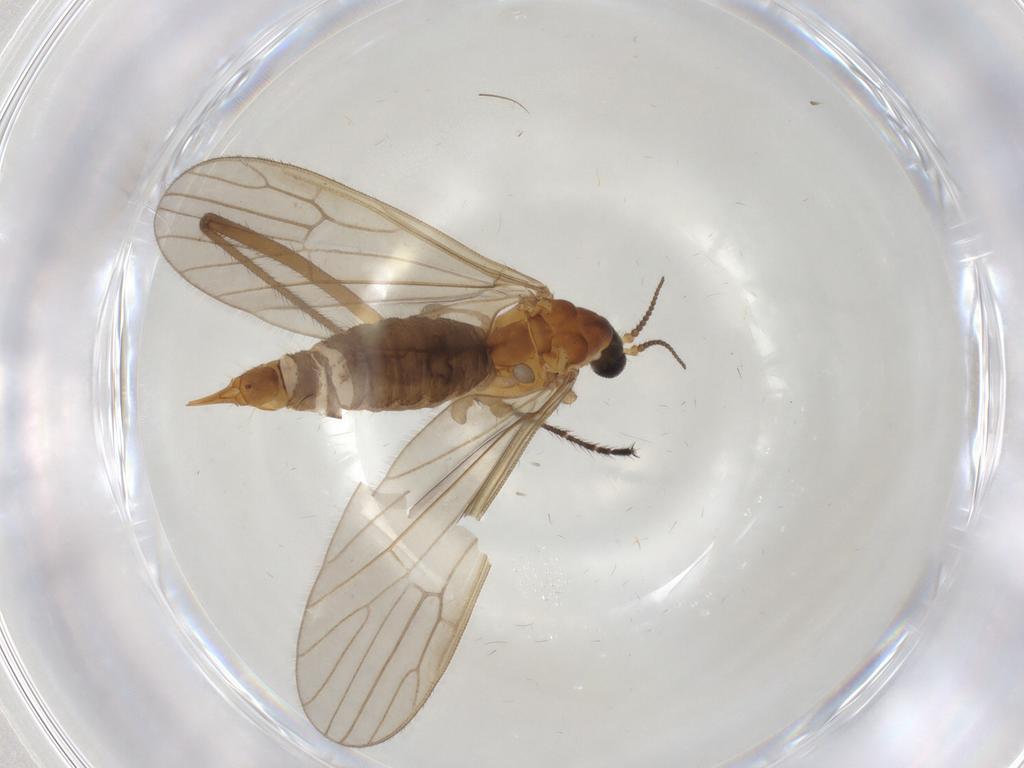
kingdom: Animalia
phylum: Arthropoda
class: Insecta
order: Diptera
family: Limoniidae
